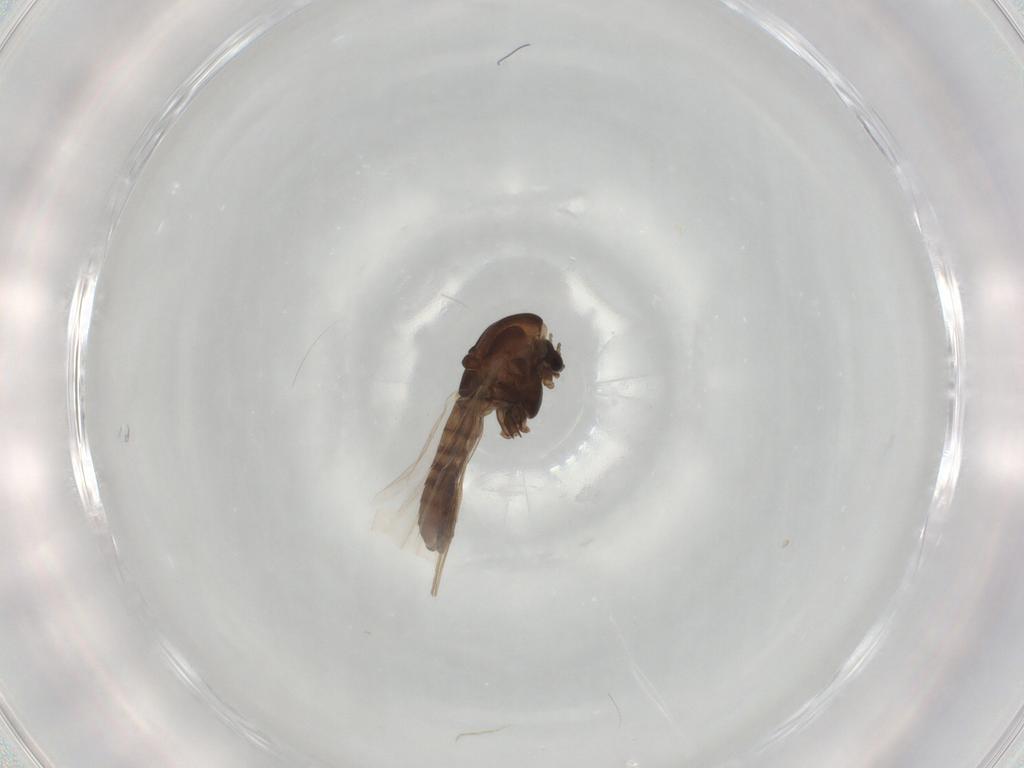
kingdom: Animalia
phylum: Arthropoda
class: Insecta
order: Diptera
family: Chironomidae
